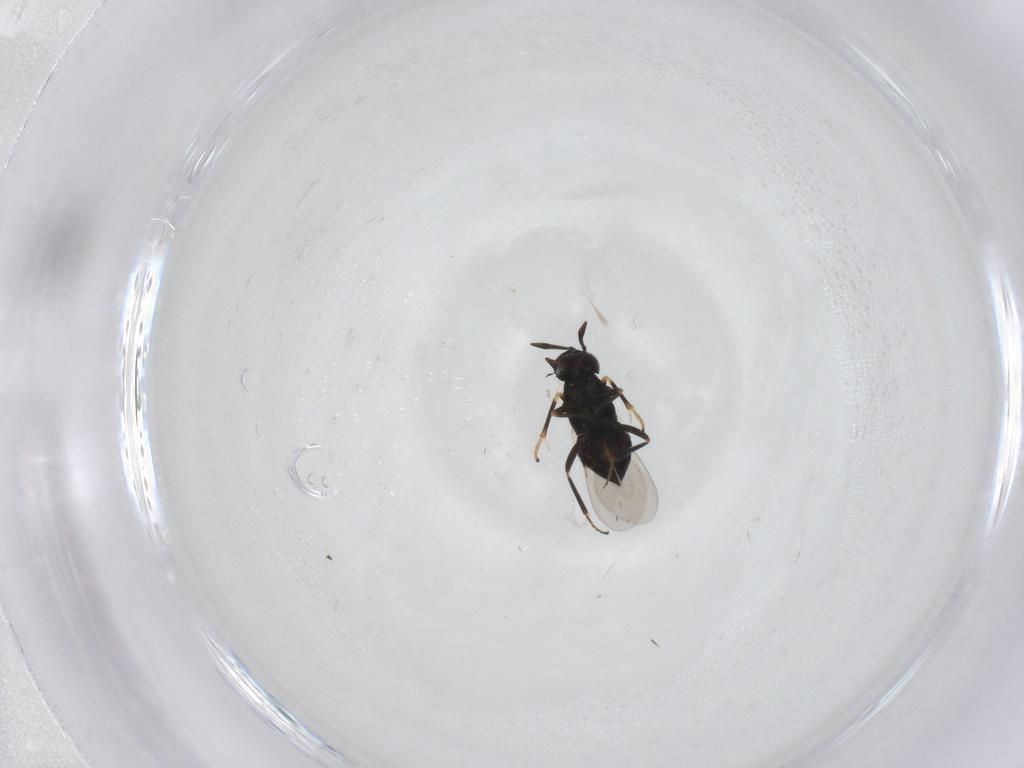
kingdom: Animalia
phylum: Arthropoda
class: Insecta
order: Hymenoptera
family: Encyrtidae
